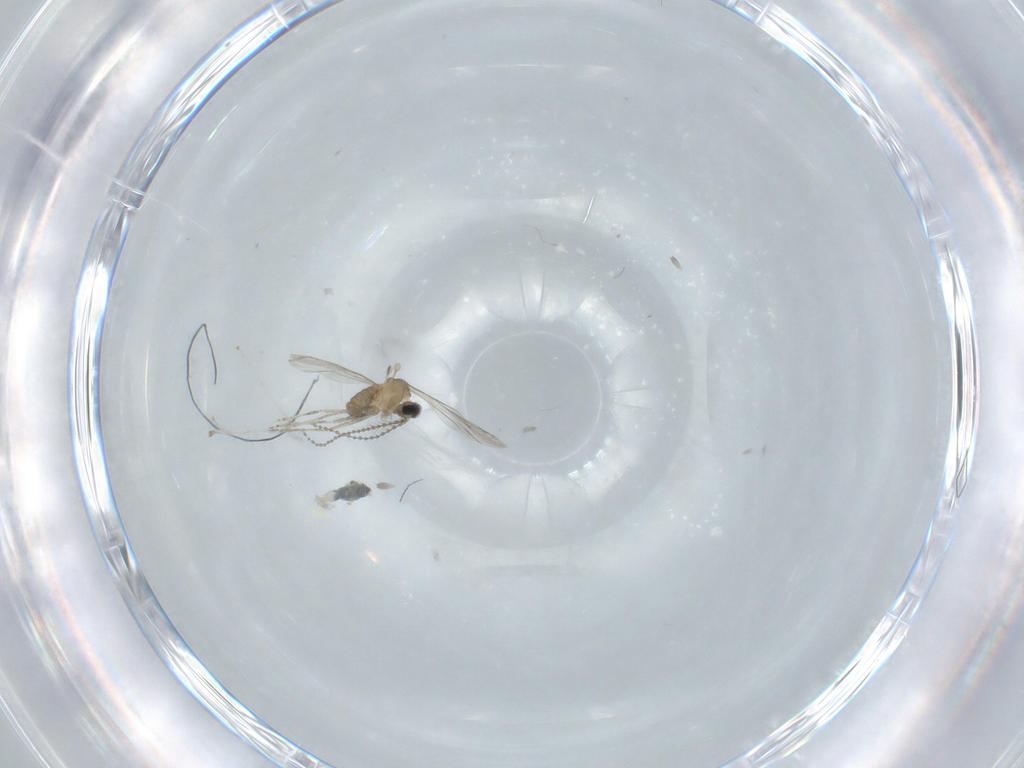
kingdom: Animalia
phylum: Arthropoda
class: Insecta
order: Diptera
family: Cecidomyiidae
